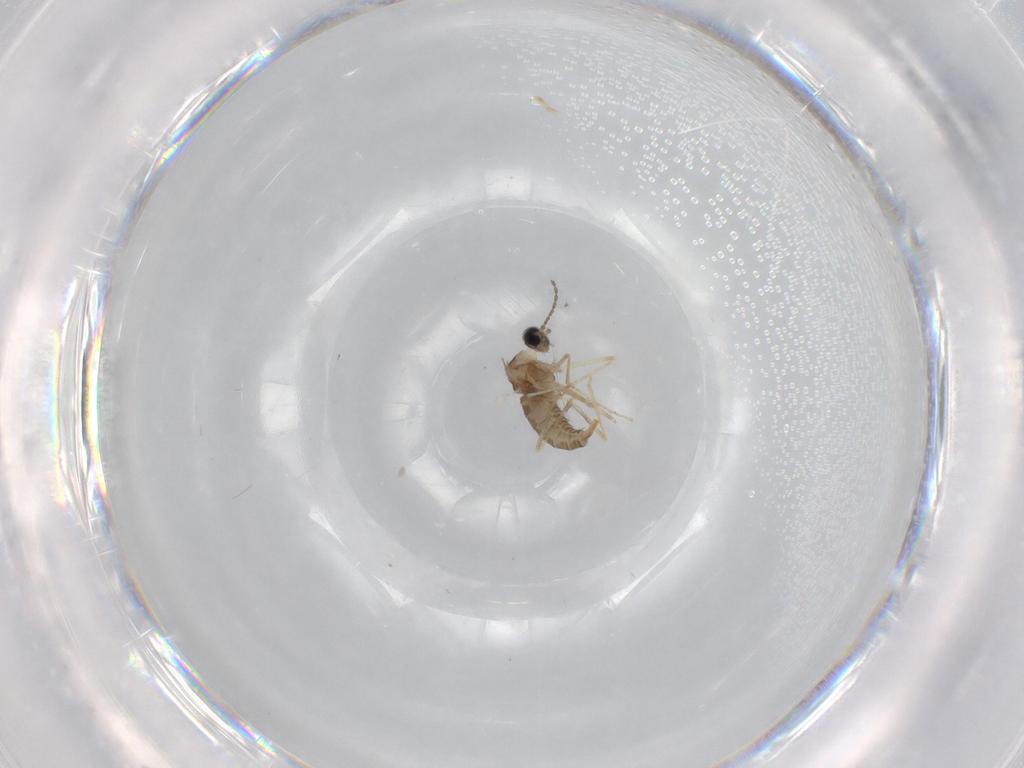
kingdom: Animalia
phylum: Arthropoda
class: Insecta
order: Diptera
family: Cecidomyiidae
